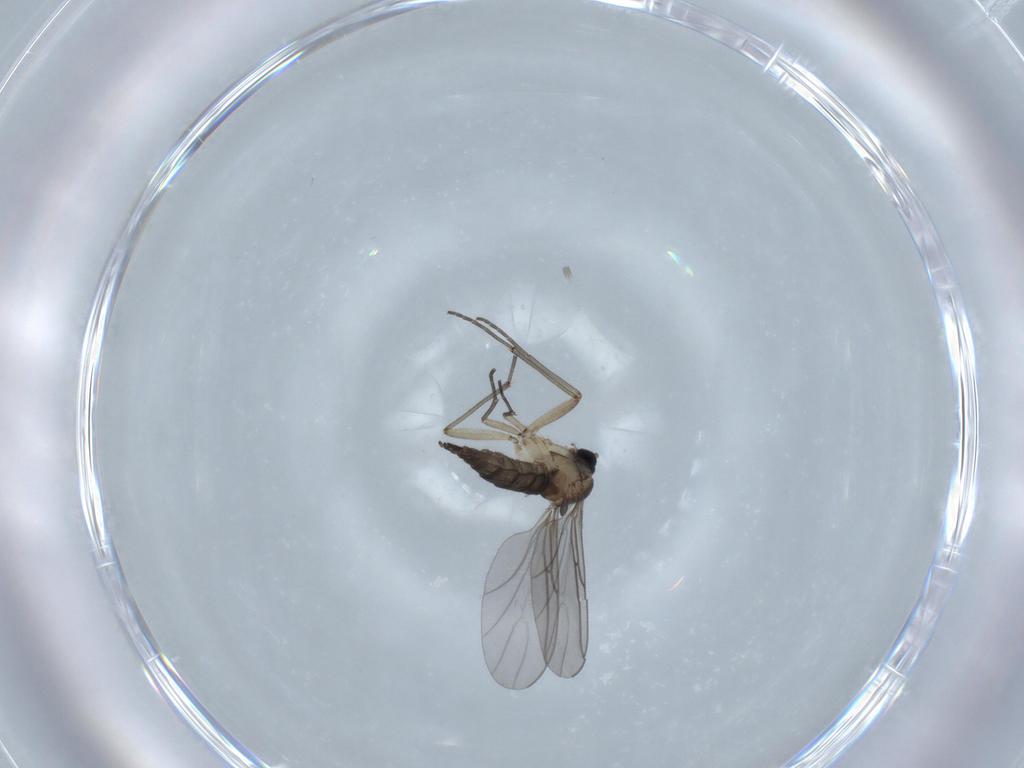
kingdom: Animalia
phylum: Arthropoda
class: Insecta
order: Diptera
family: Sciaridae
